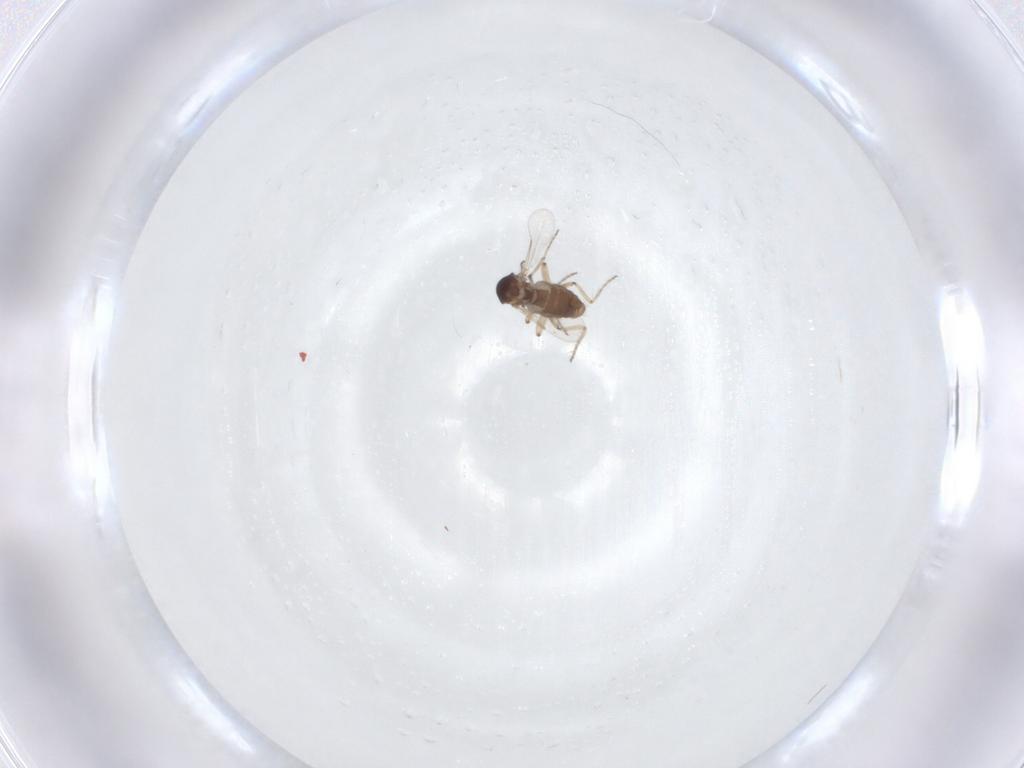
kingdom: Animalia
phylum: Arthropoda
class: Insecta
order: Diptera
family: Ceratopogonidae
